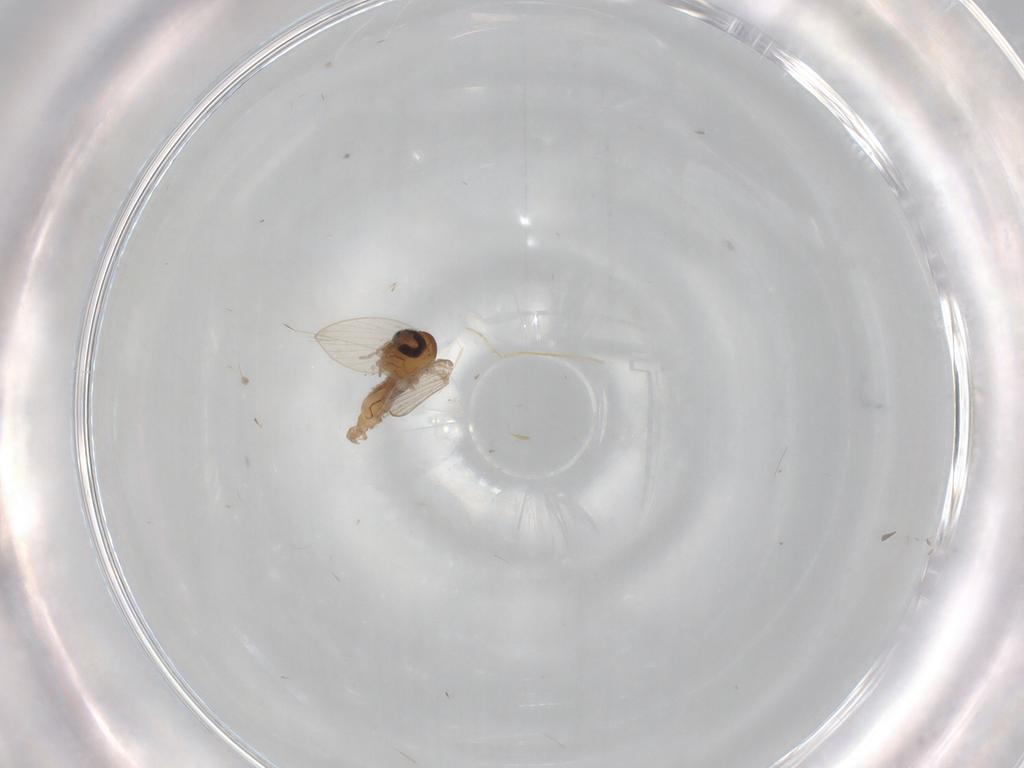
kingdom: Animalia
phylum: Arthropoda
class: Insecta
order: Diptera
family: Psychodidae
